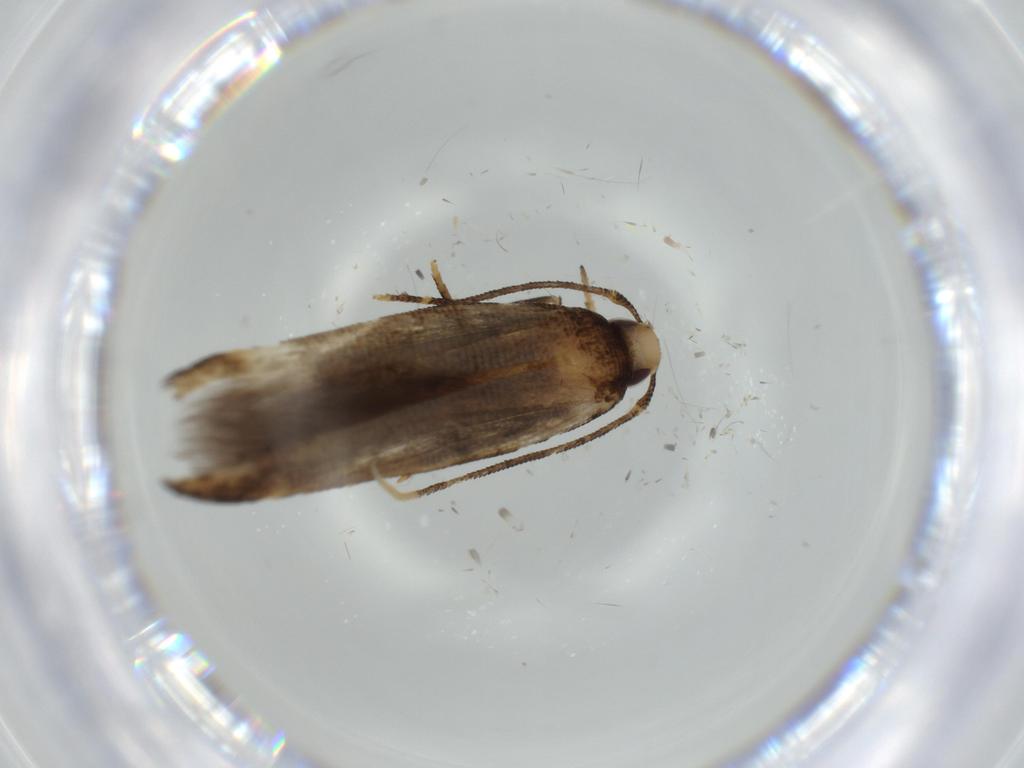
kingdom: Animalia
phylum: Arthropoda
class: Insecta
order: Lepidoptera
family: Cosmopterigidae
